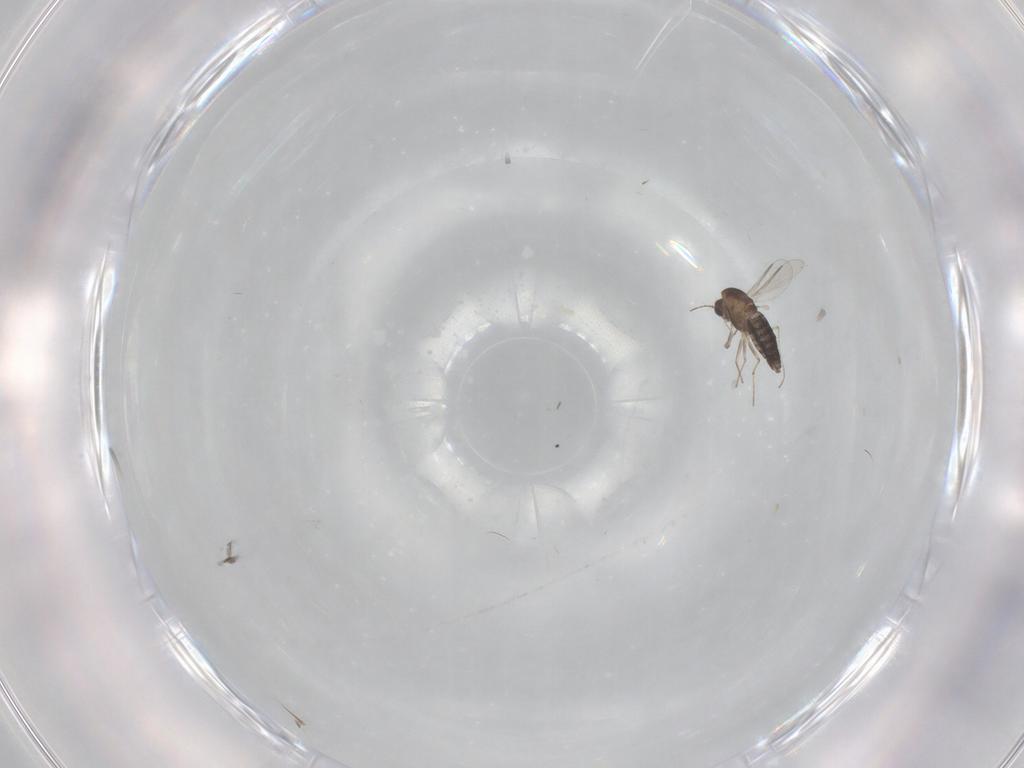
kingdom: Animalia
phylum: Arthropoda
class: Insecta
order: Diptera
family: Chironomidae
